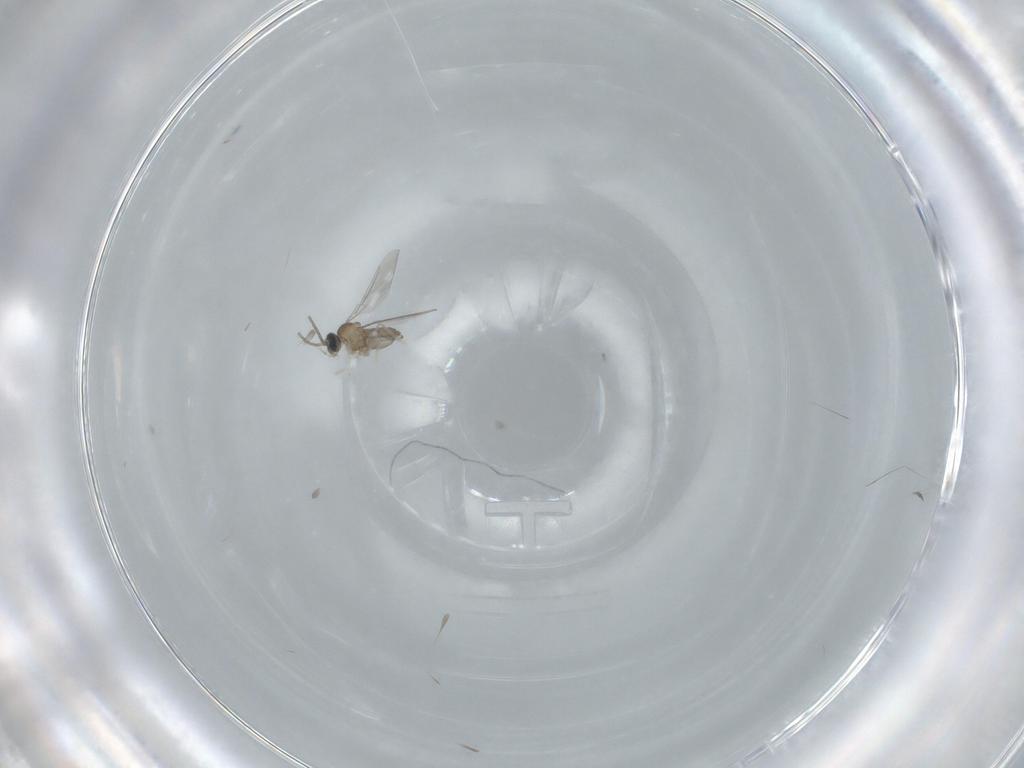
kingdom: Animalia
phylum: Arthropoda
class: Insecta
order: Diptera
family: Psychodidae
